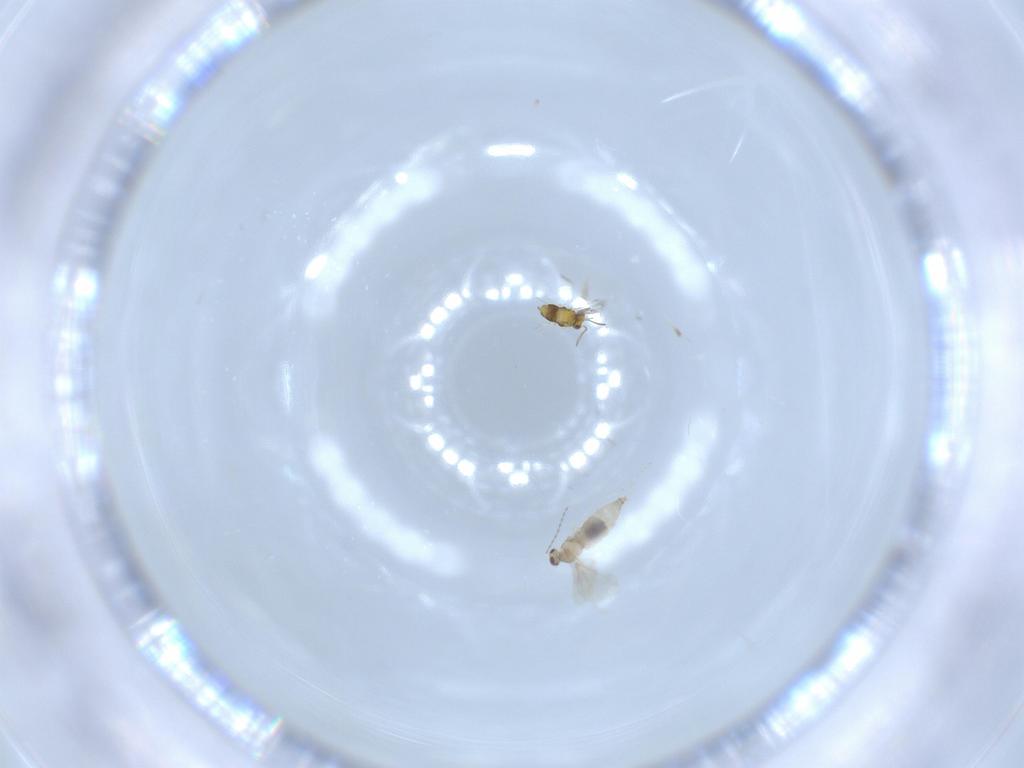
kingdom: Animalia
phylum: Arthropoda
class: Insecta
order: Diptera
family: Cecidomyiidae
